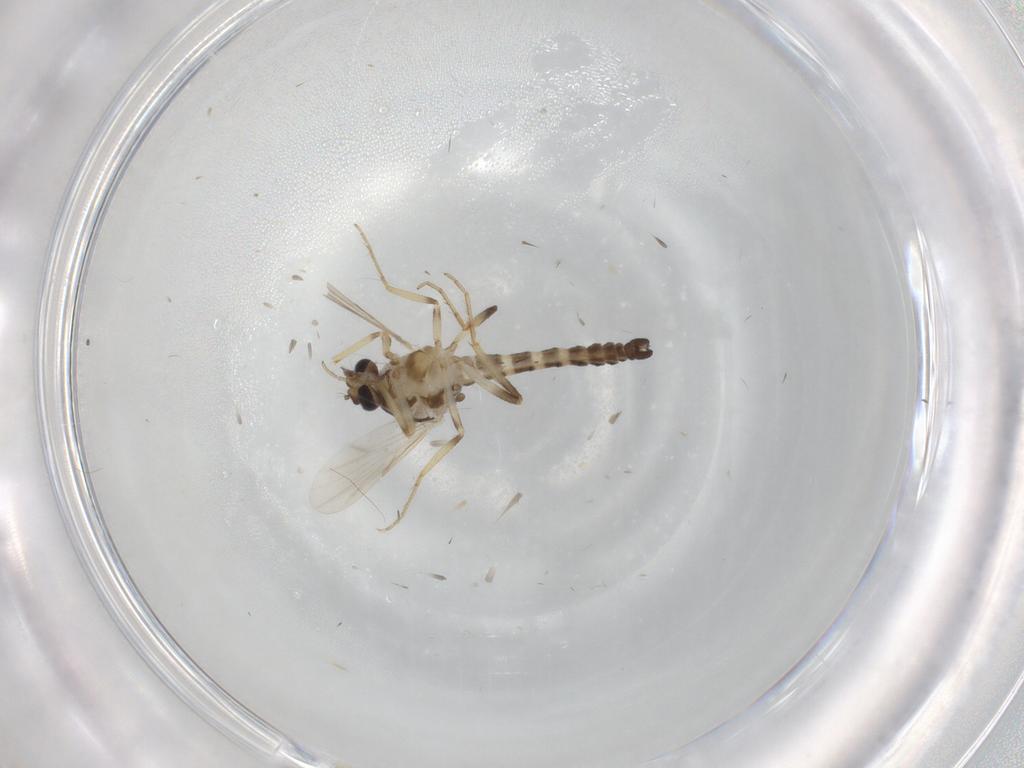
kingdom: Animalia
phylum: Arthropoda
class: Insecta
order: Diptera
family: Ceratopogonidae
